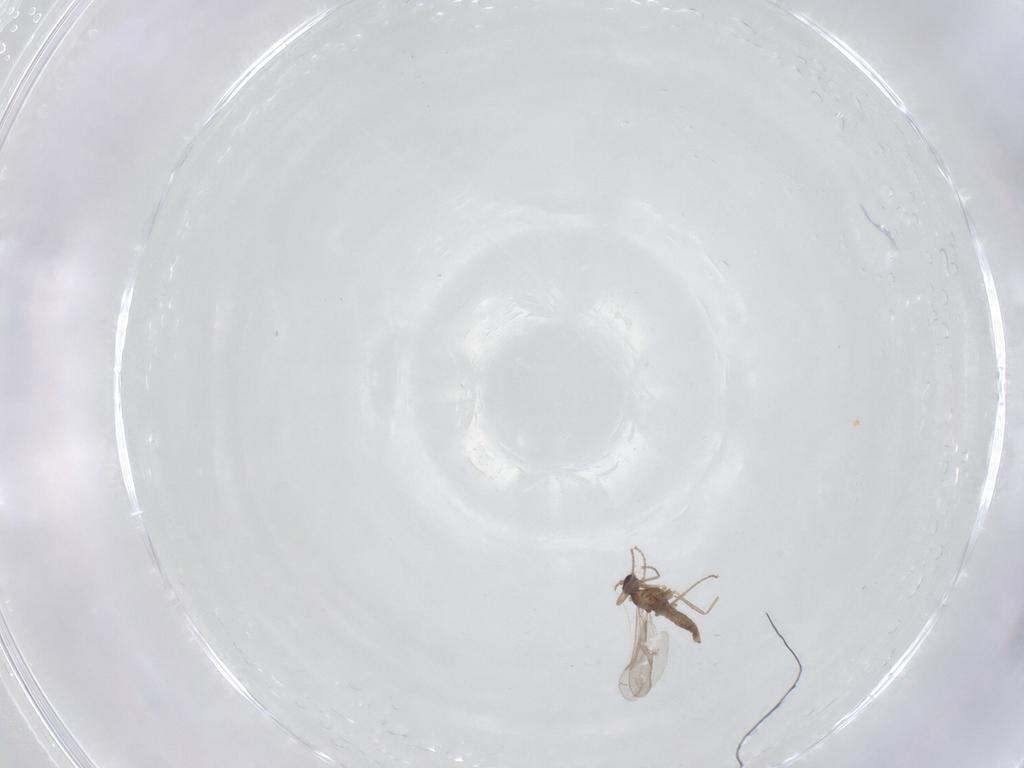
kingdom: Animalia
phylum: Arthropoda
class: Insecta
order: Diptera
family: Cecidomyiidae
